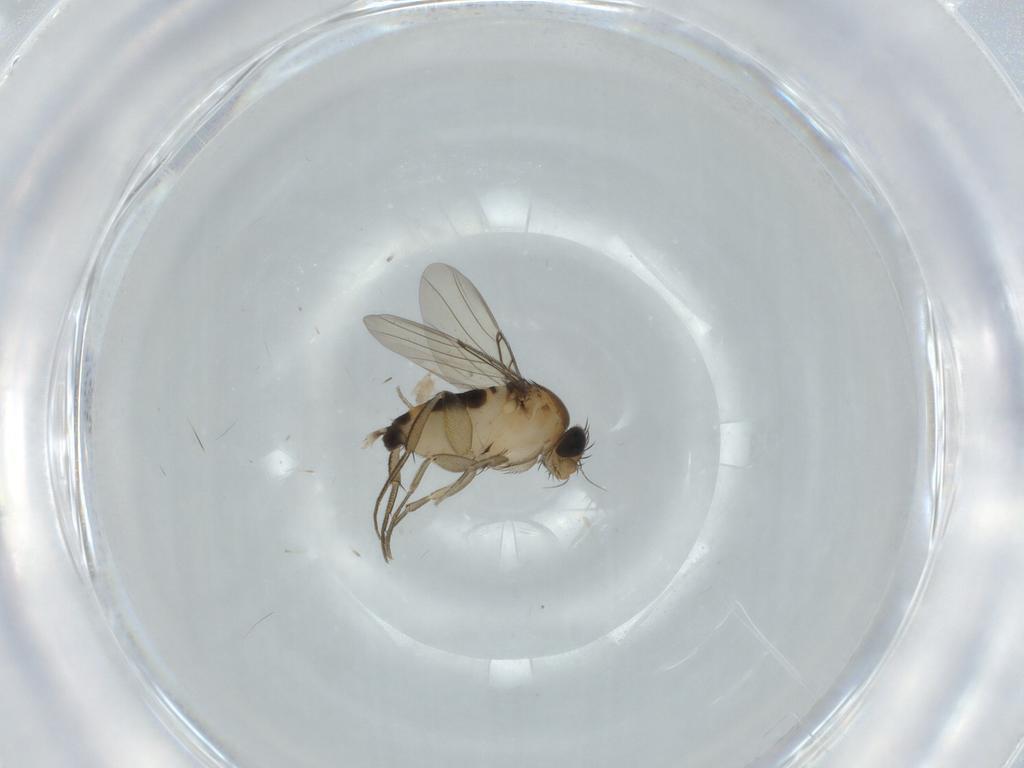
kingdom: Animalia
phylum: Arthropoda
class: Insecta
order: Diptera
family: Phoridae
